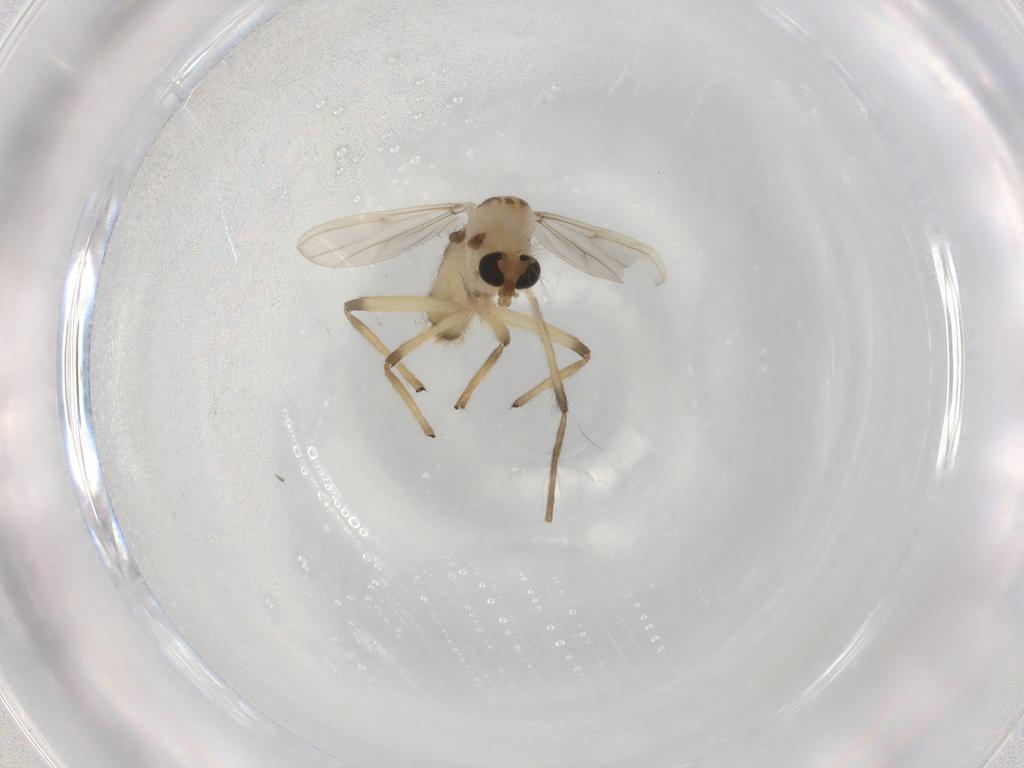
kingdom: Animalia
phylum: Arthropoda
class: Insecta
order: Diptera
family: Chironomidae
